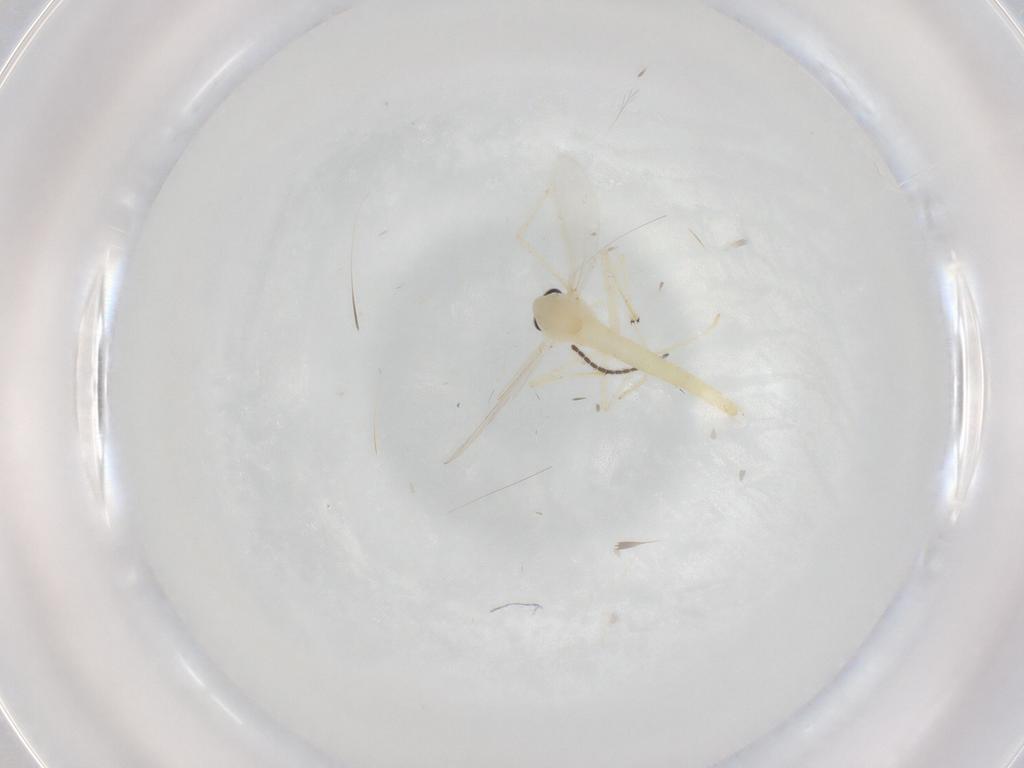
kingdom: Animalia
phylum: Arthropoda
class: Insecta
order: Diptera
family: Chironomidae
